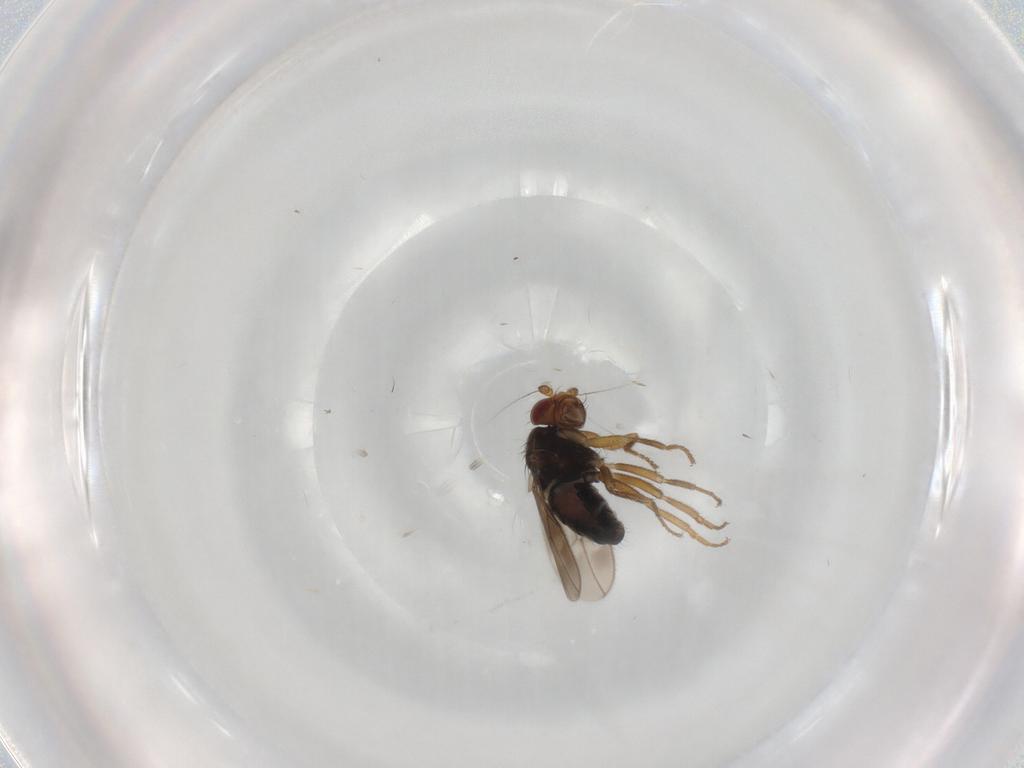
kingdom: Animalia
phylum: Arthropoda
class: Insecta
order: Diptera
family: Sphaeroceridae
